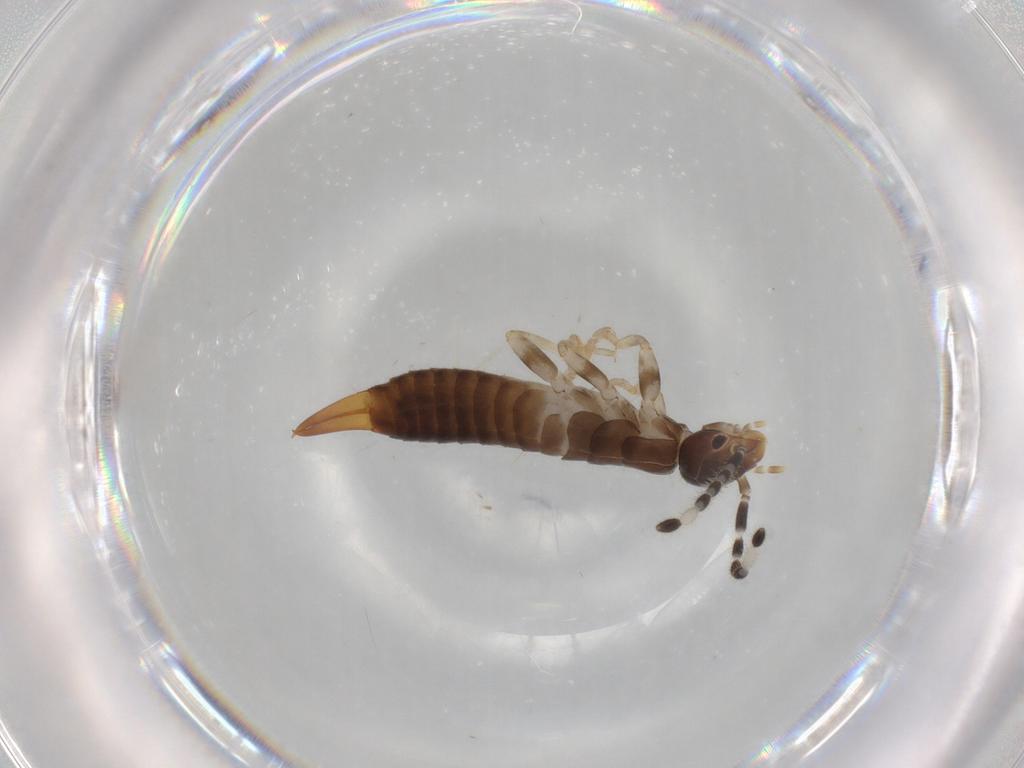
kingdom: Animalia
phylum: Arthropoda
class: Insecta
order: Dermaptera
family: Anisolabididae
